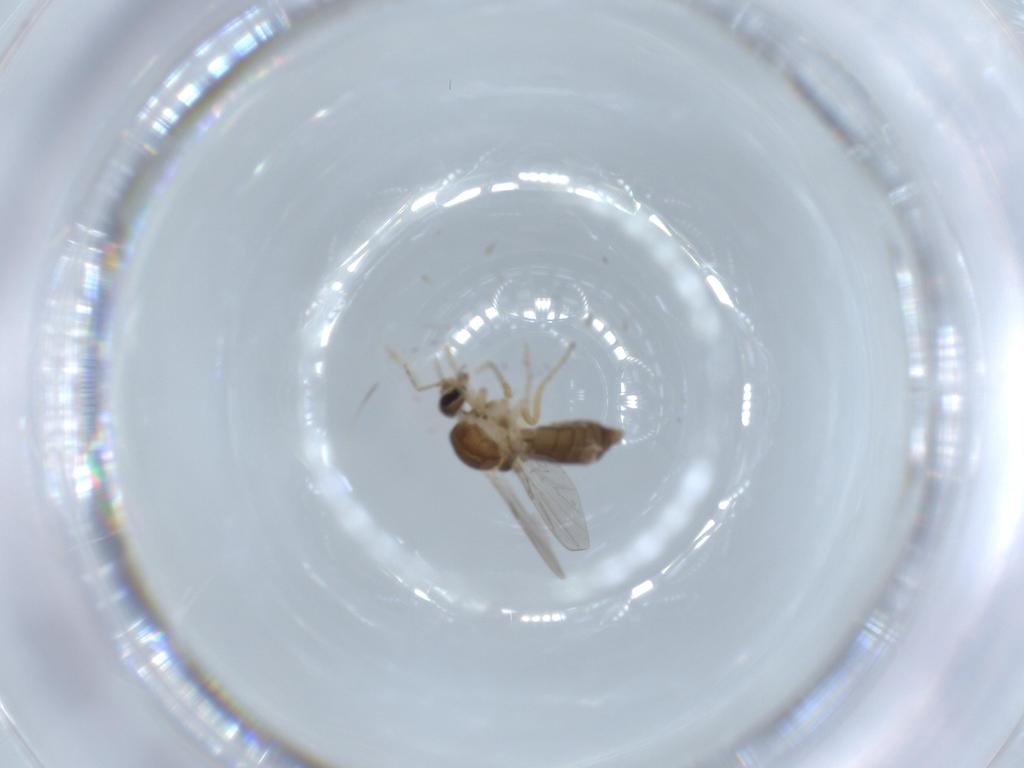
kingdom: Animalia
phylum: Arthropoda
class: Insecta
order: Diptera
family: Ceratopogonidae
